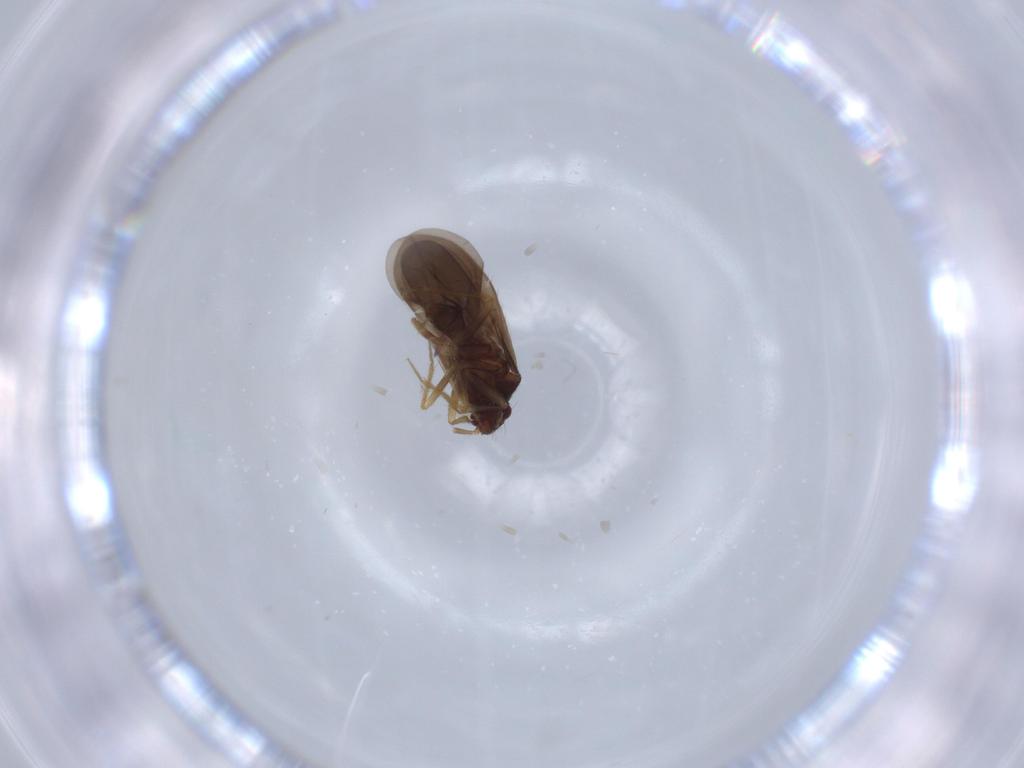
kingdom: Animalia
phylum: Arthropoda
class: Insecta
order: Hemiptera
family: Ceratocombidae
